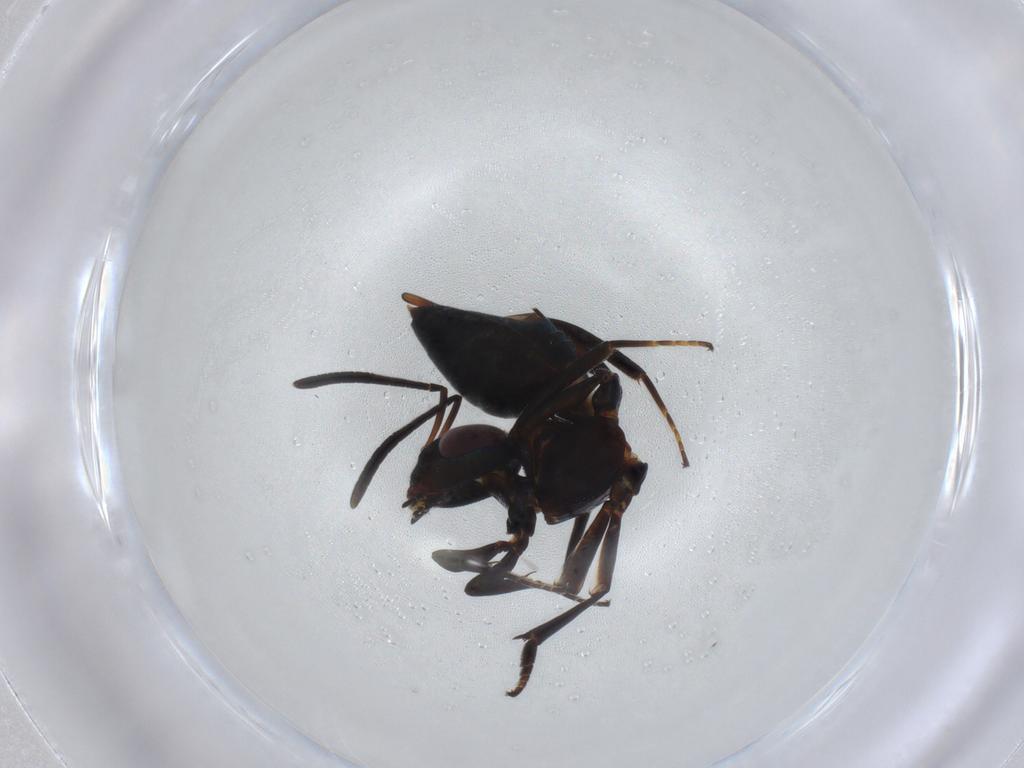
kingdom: Animalia
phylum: Arthropoda
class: Insecta
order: Hymenoptera
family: Eupelmidae
